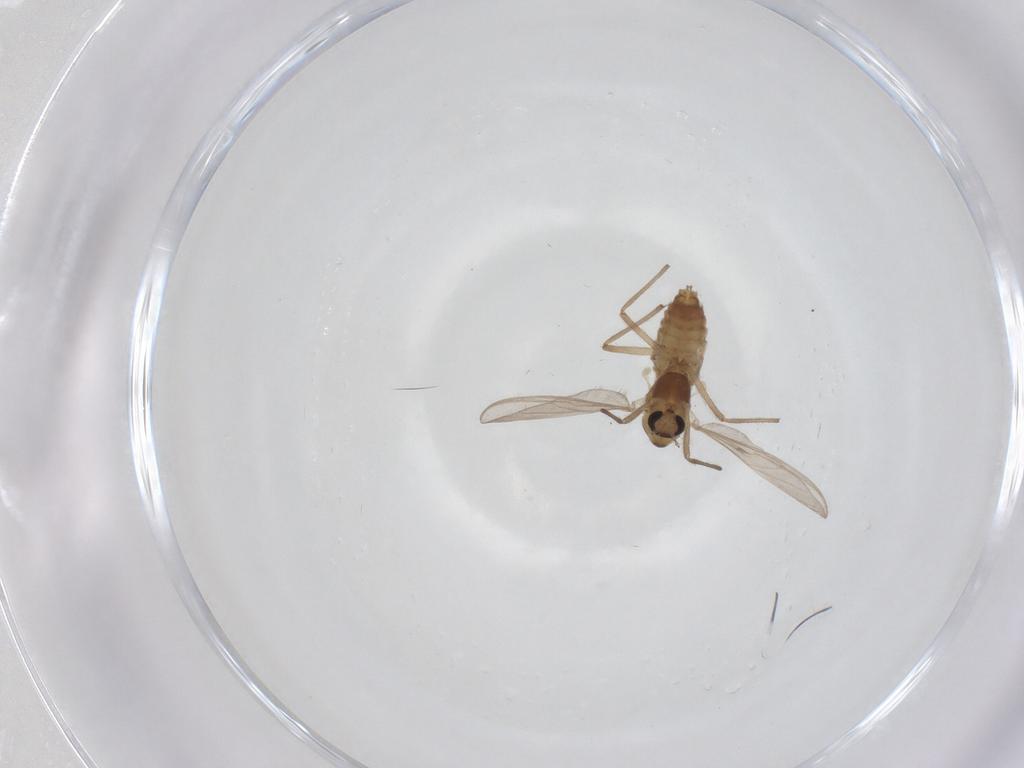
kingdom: Animalia
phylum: Arthropoda
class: Insecta
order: Diptera
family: Chironomidae
